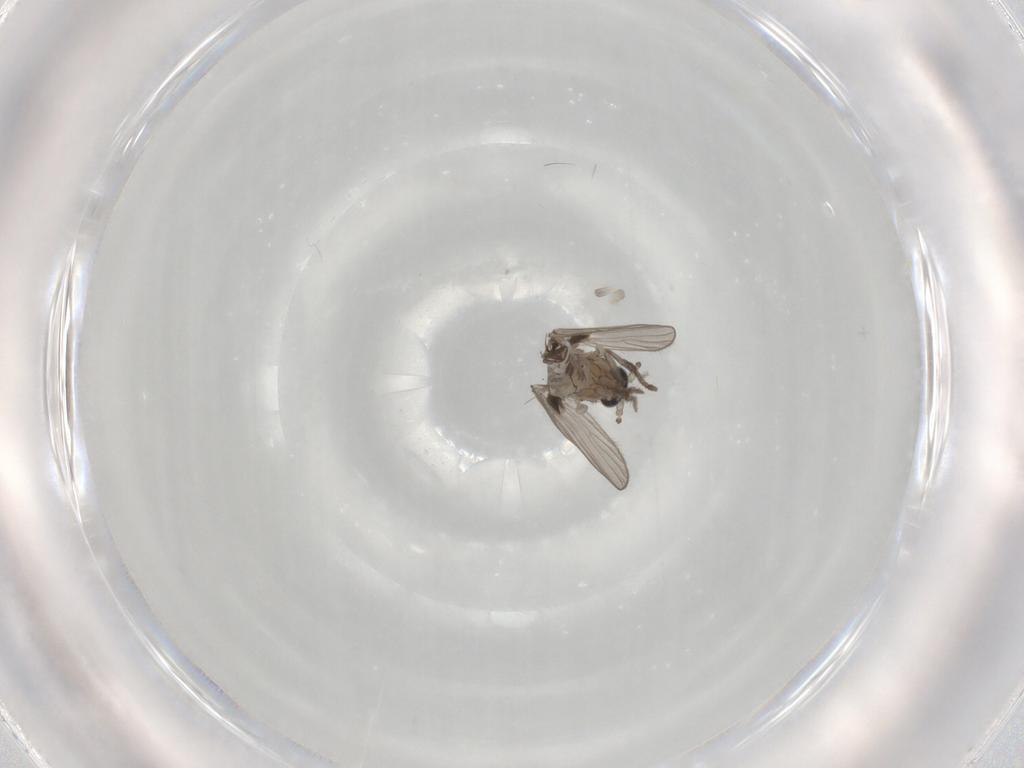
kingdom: Animalia
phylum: Arthropoda
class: Insecta
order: Diptera
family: Psychodidae
